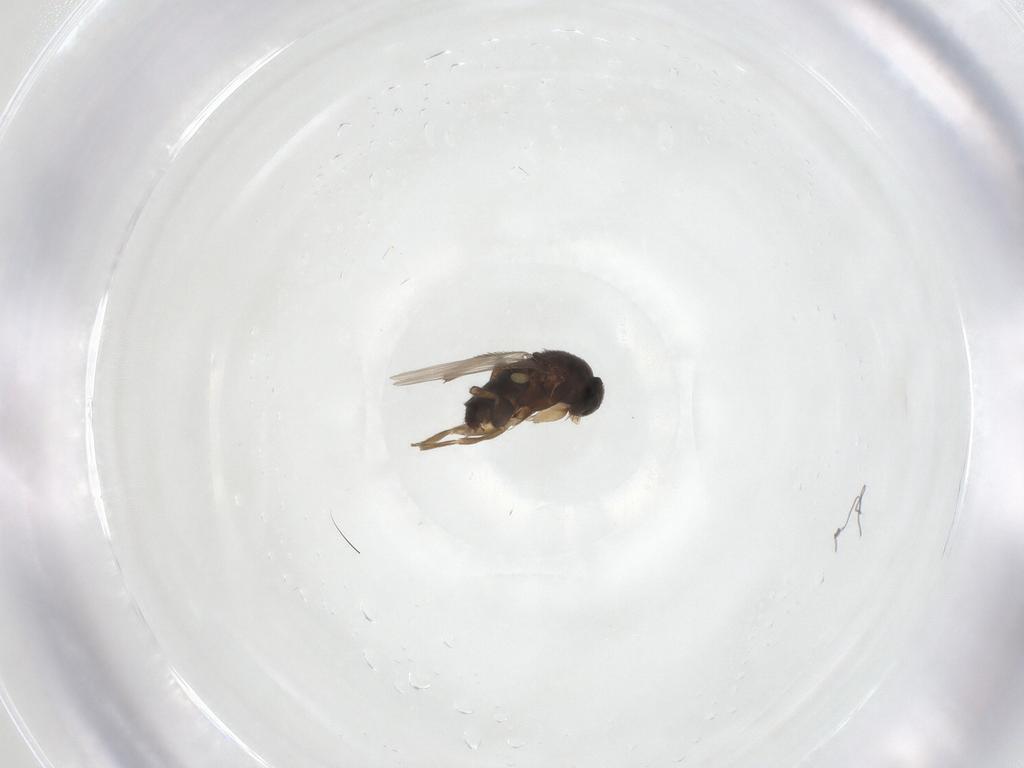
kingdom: Animalia
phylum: Arthropoda
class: Insecta
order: Diptera
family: Phoridae
